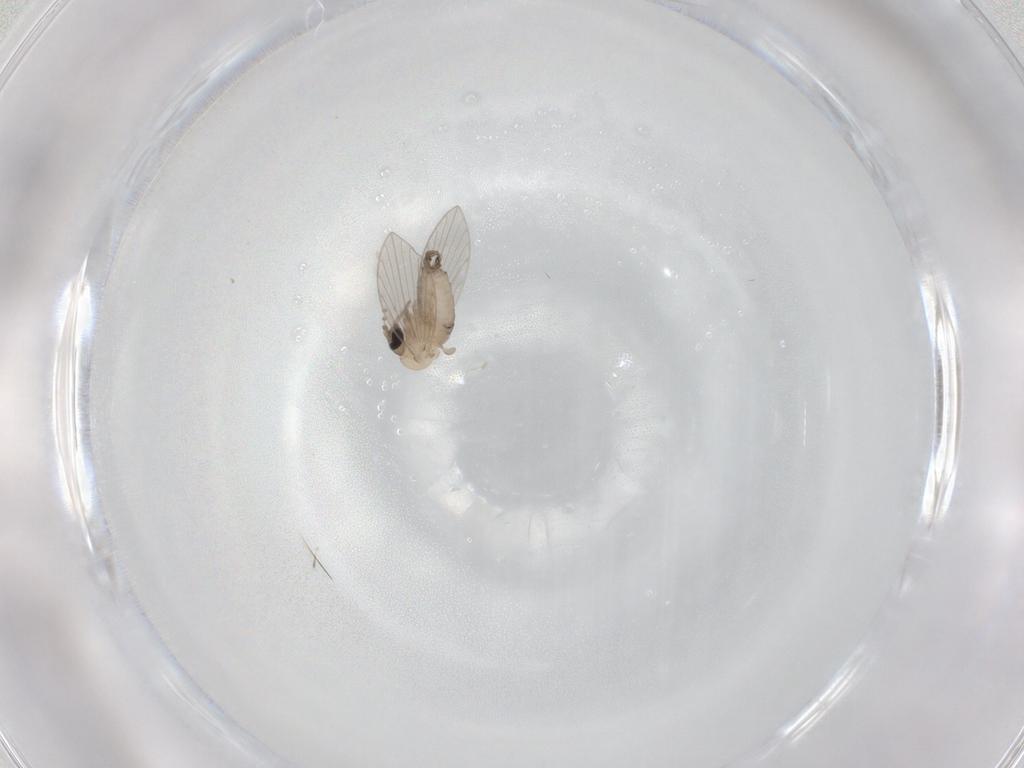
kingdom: Animalia
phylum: Arthropoda
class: Insecta
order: Diptera
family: Psychodidae
